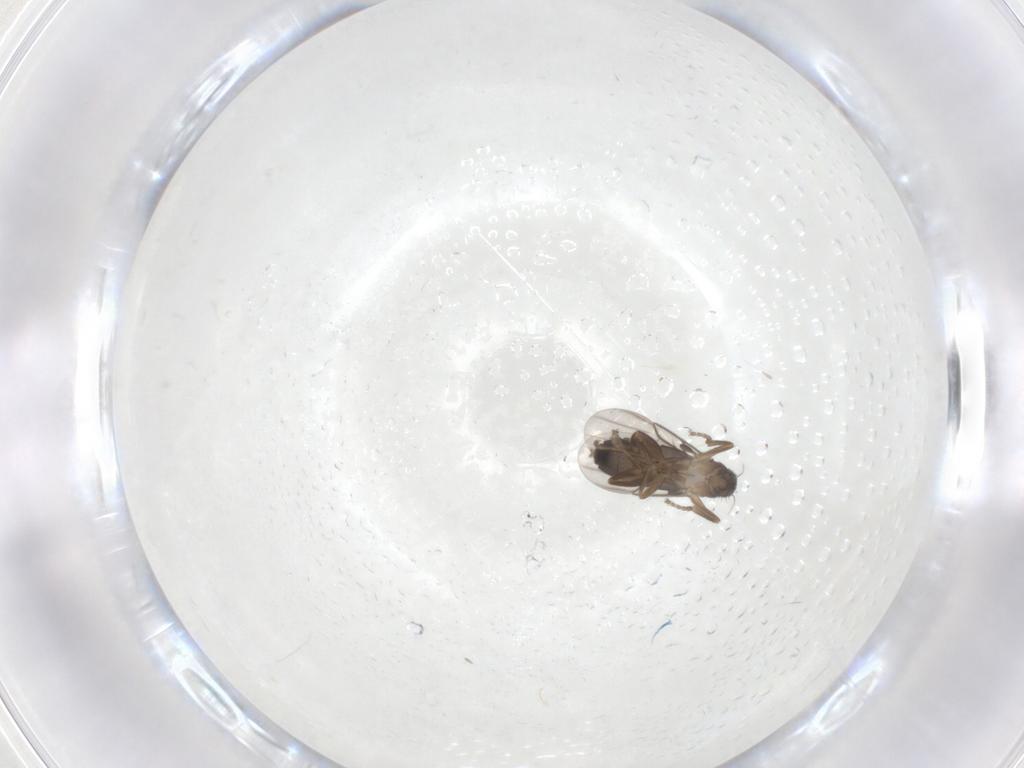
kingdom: Animalia
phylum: Arthropoda
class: Insecta
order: Diptera
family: Phoridae
